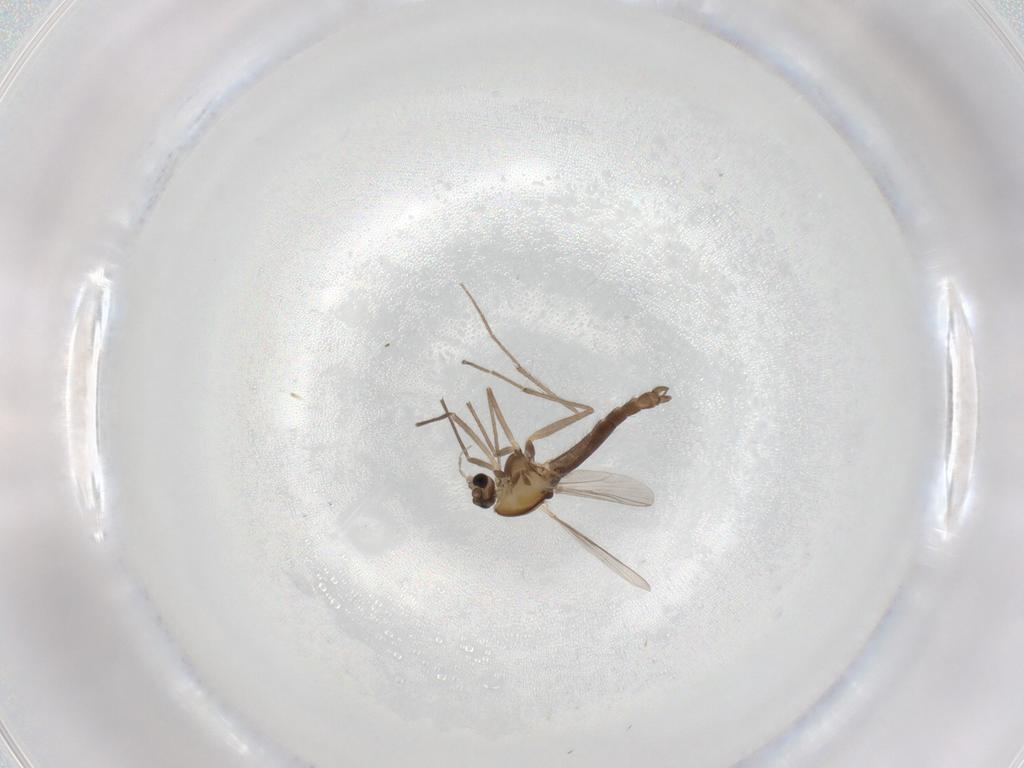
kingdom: Animalia
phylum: Arthropoda
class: Insecta
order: Diptera
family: Chironomidae
